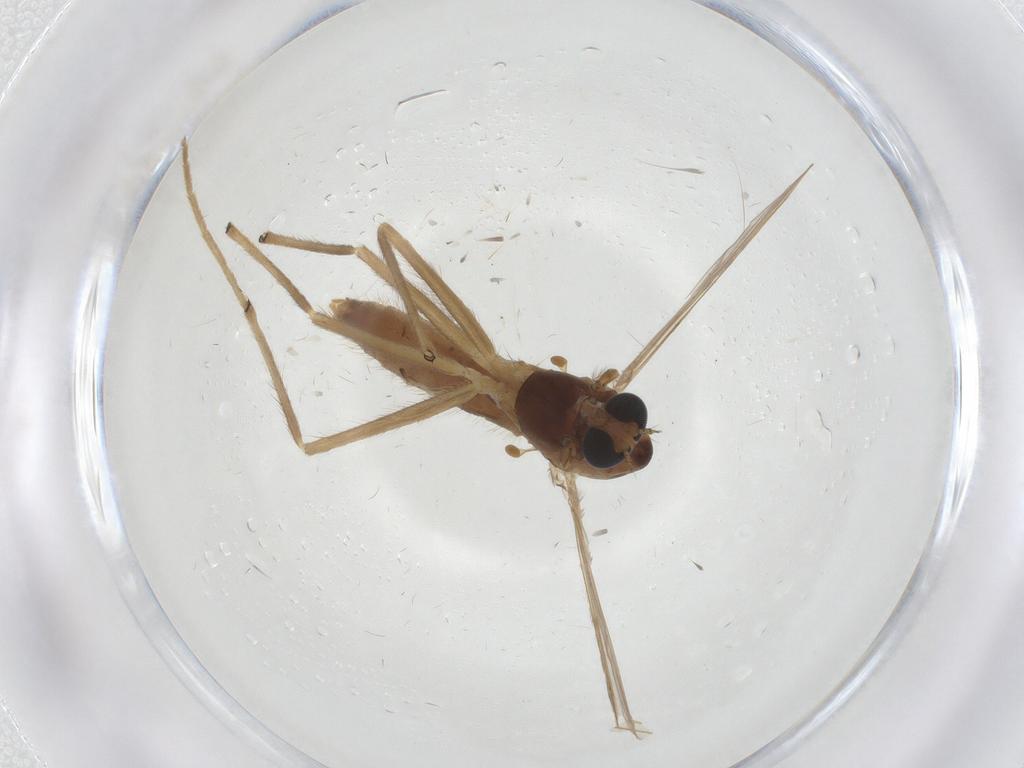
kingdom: Animalia
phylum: Arthropoda
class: Insecta
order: Diptera
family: Chironomidae
